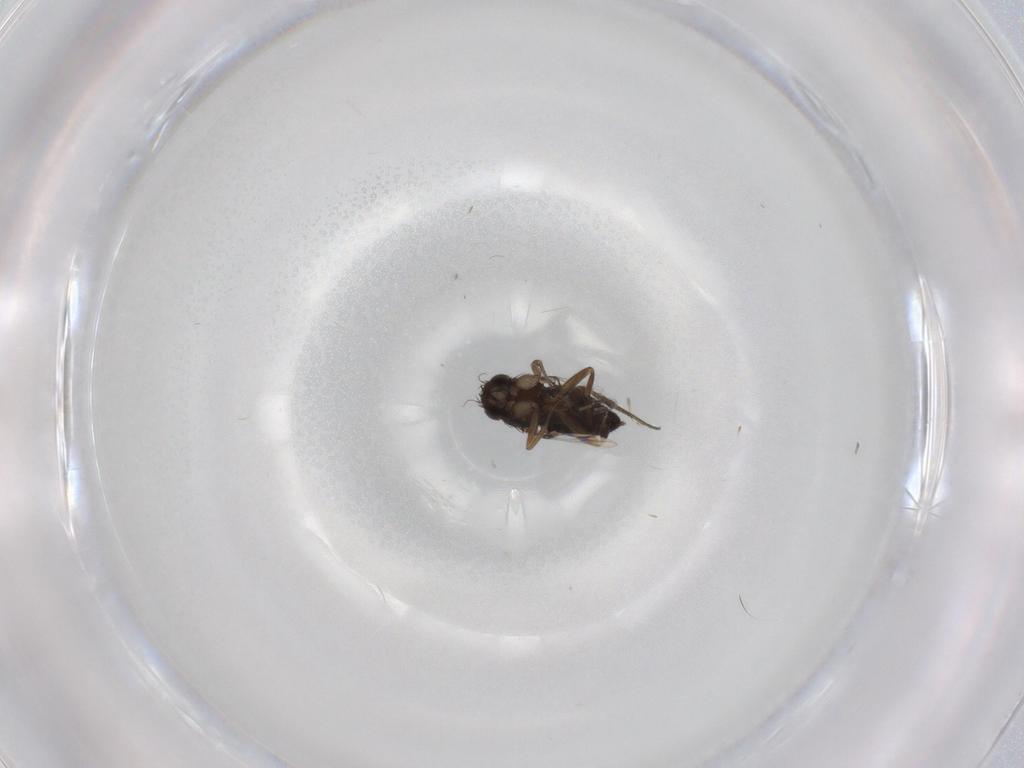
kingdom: Animalia
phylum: Arthropoda
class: Insecta
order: Diptera
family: Phoridae
